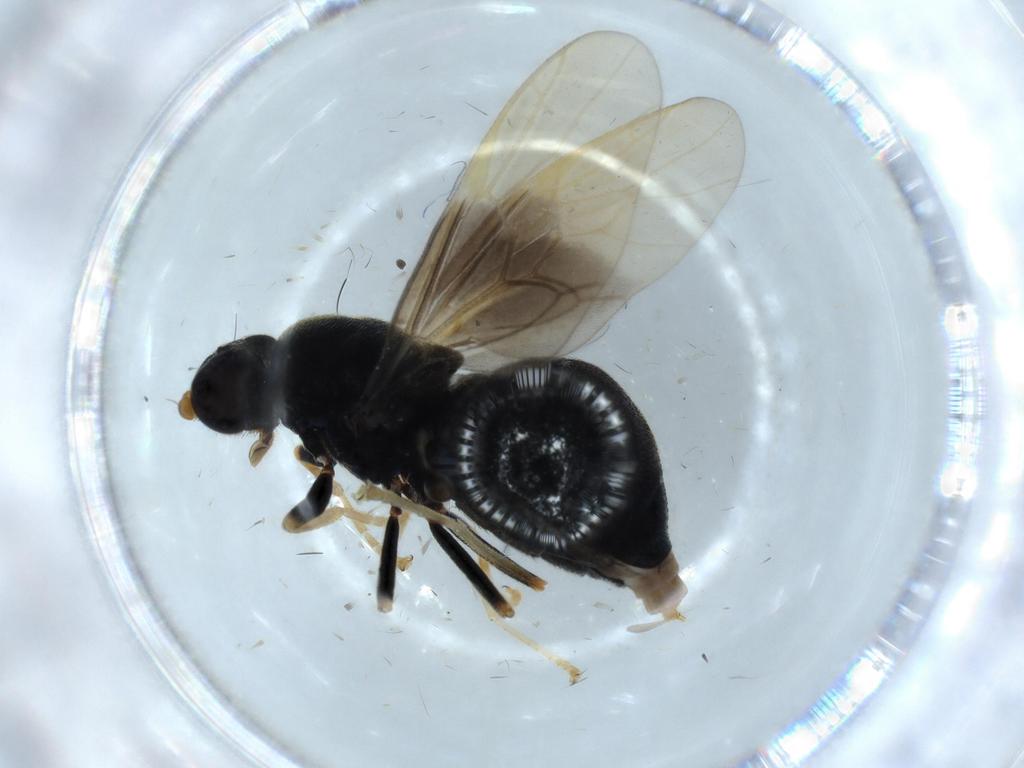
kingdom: Animalia
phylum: Arthropoda
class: Insecta
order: Diptera
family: Stratiomyidae
